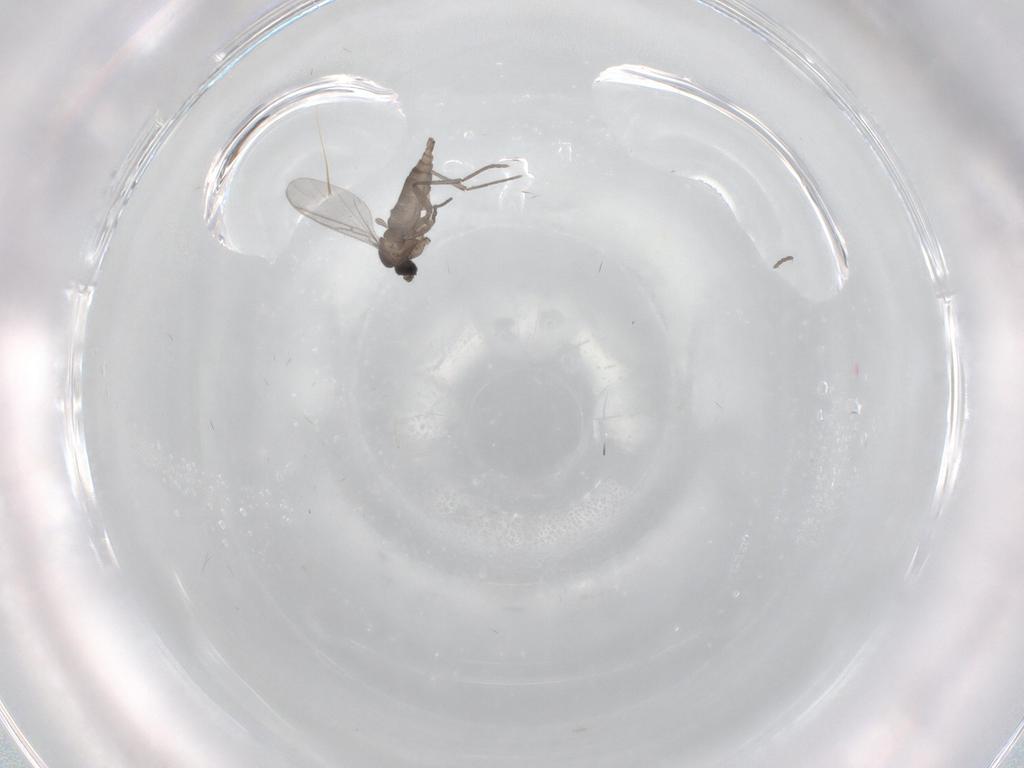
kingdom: Animalia
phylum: Arthropoda
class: Insecta
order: Diptera
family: Sciaridae
